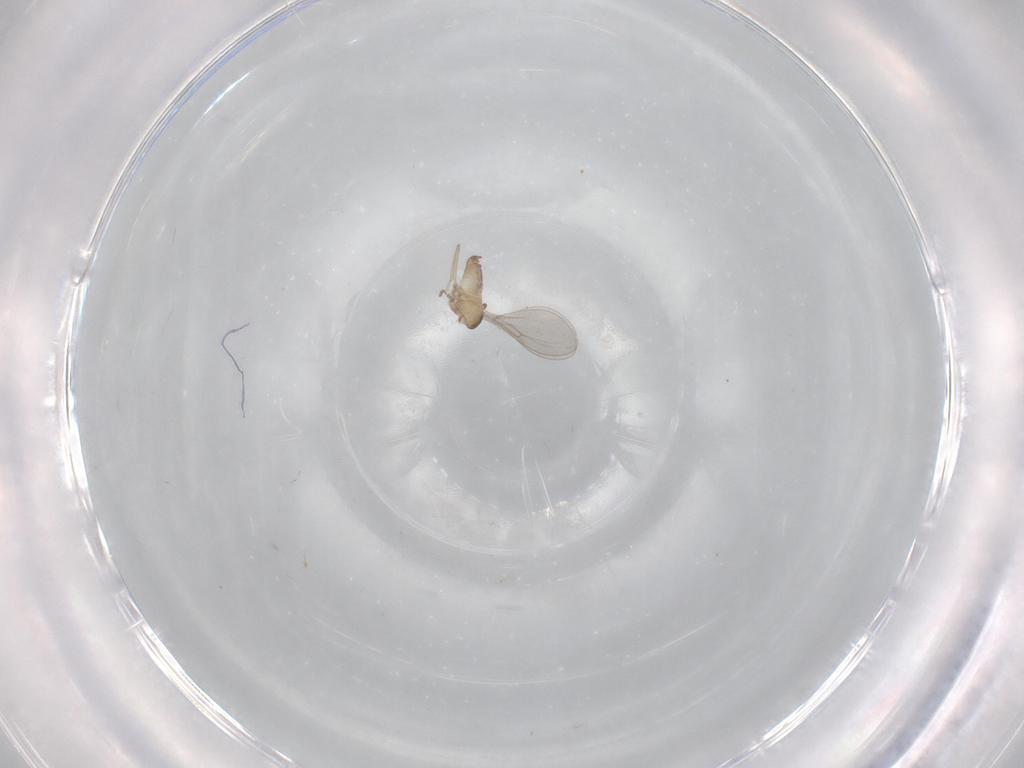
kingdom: Animalia
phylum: Arthropoda
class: Insecta
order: Diptera
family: Cecidomyiidae
